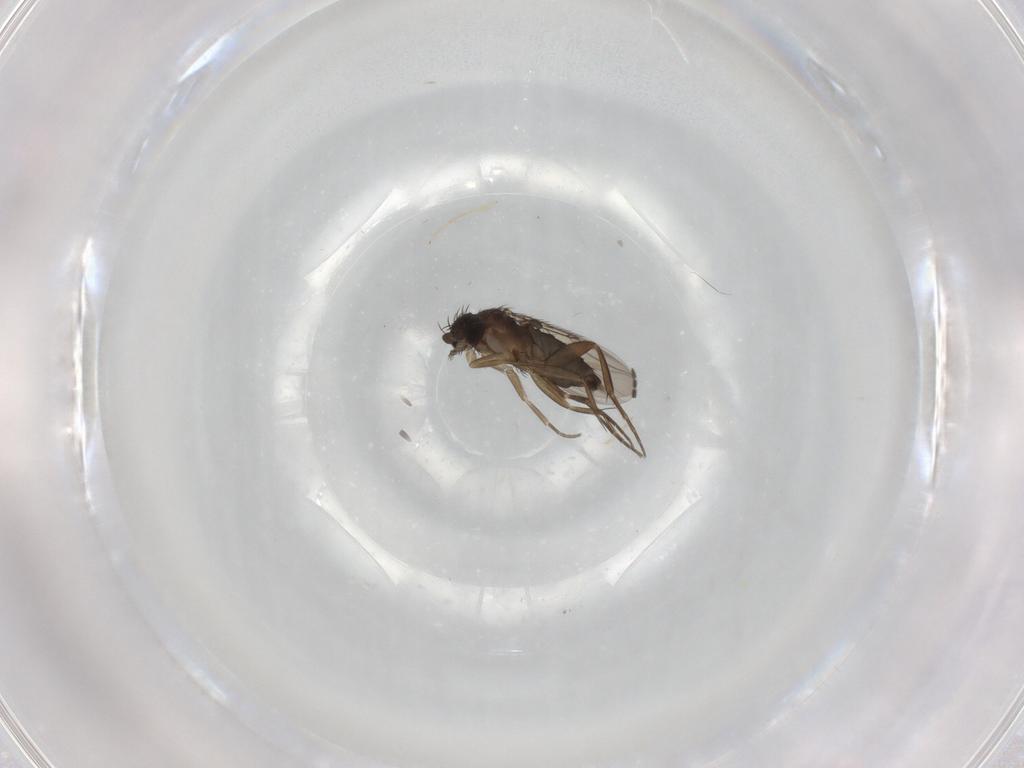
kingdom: Animalia
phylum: Arthropoda
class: Insecta
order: Diptera
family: Phoridae
